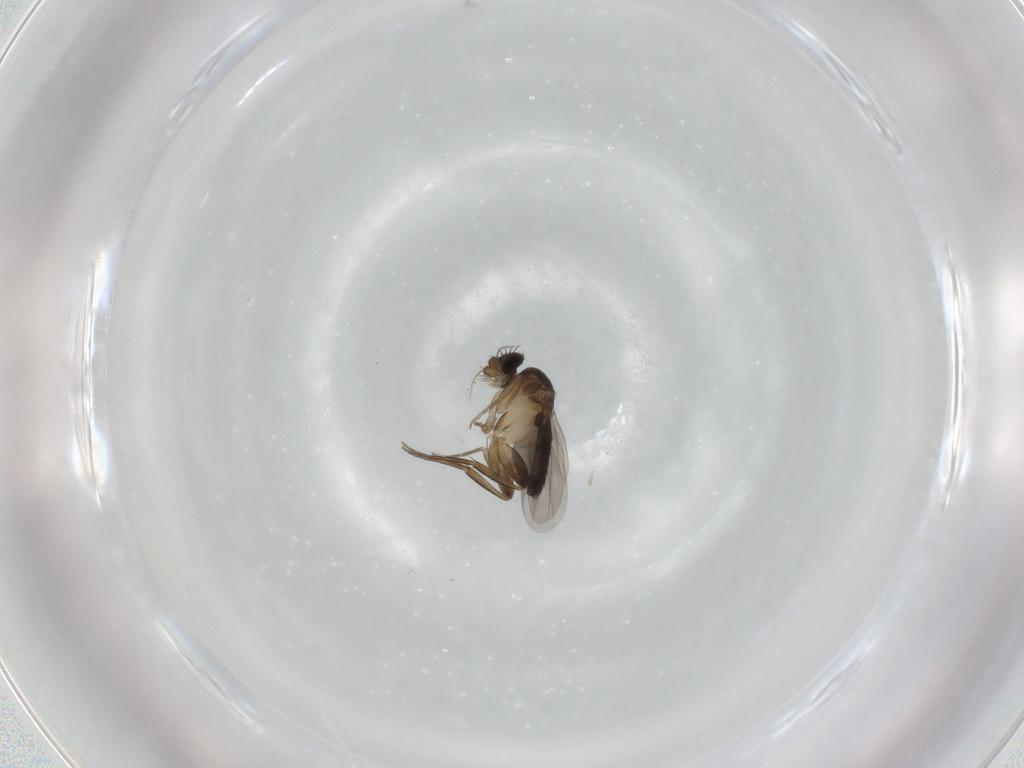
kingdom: Animalia
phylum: Arthropoda
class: Insecta
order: Diptera
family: Phoridae
